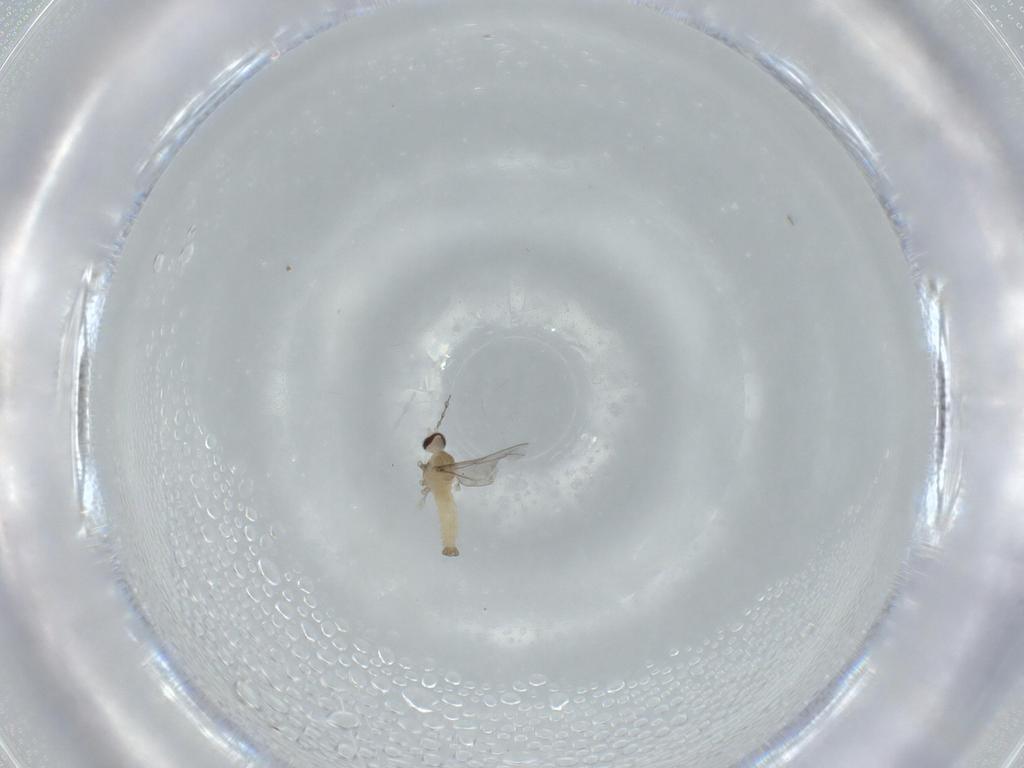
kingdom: Animalia
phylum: Arthropoda
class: Insecta
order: Diptera
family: Cecidomyiidae
